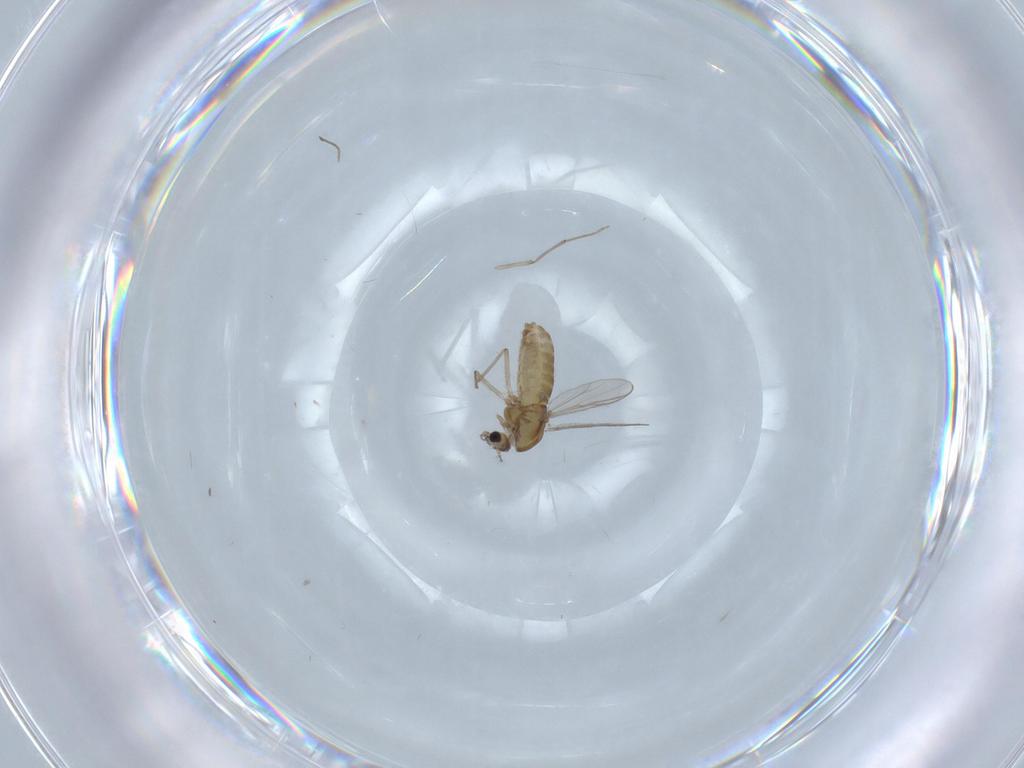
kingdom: Animalia
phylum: Arthropoda
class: Insecta
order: Diptera
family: Chironomidae
